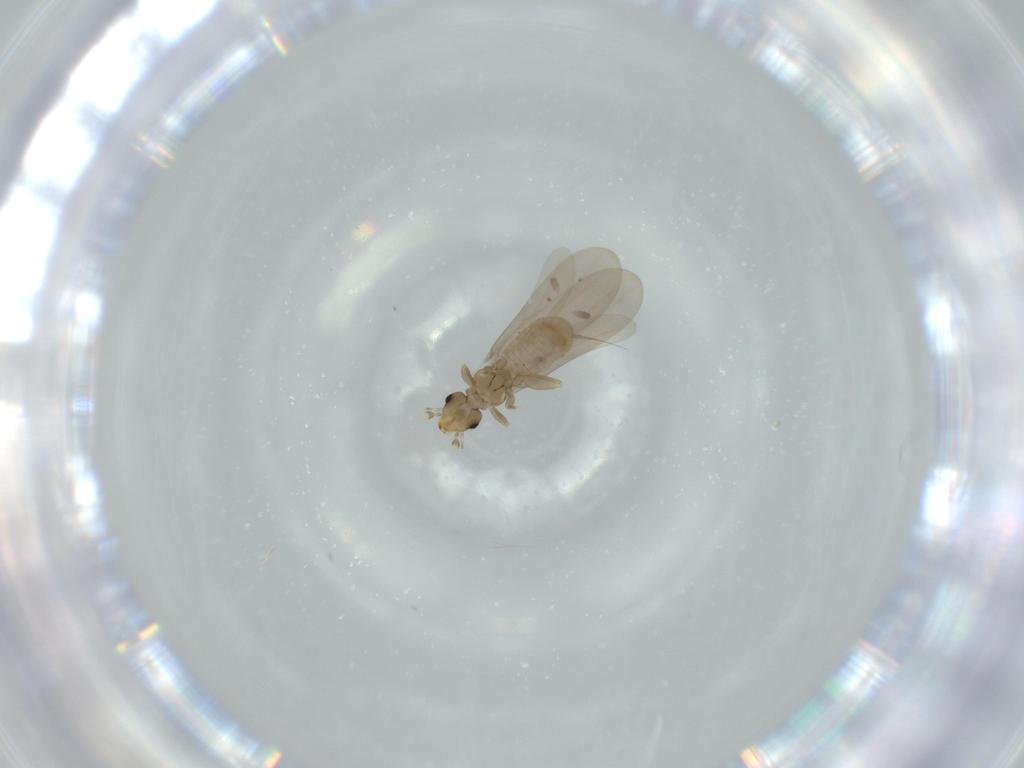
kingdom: Animalia
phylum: Arthropoda
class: Insecta
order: Psocodea
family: Liposcelididae
